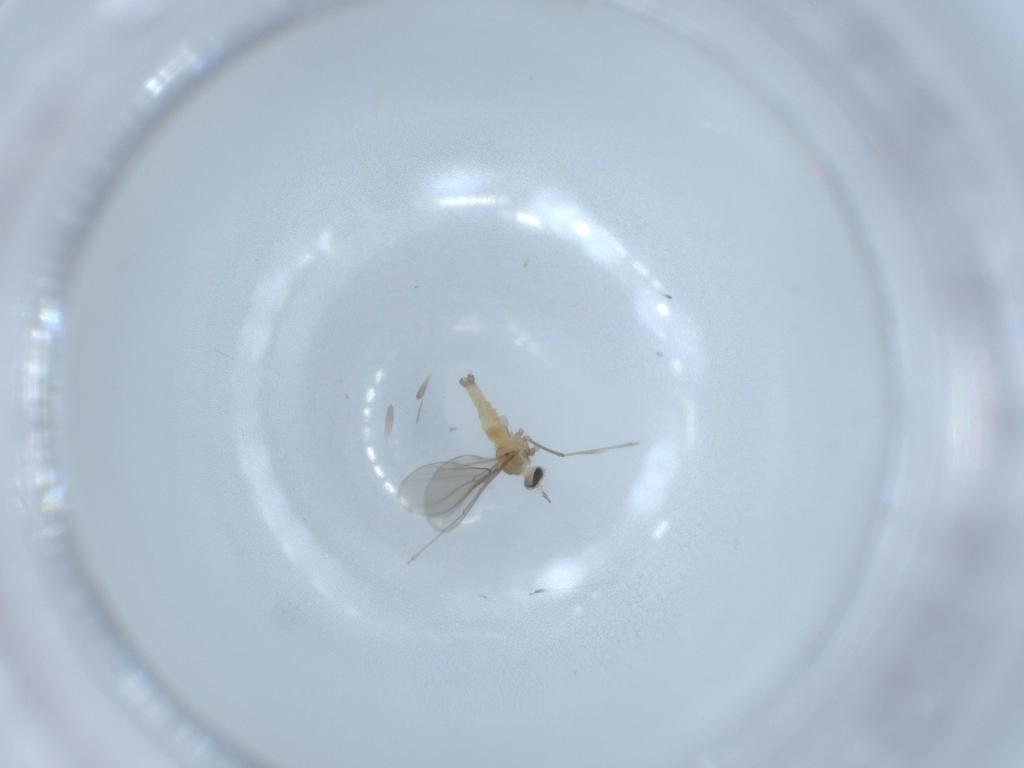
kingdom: Animalia
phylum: Arthropoda
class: Insecta
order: Diptera
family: Cecidomyiidae
